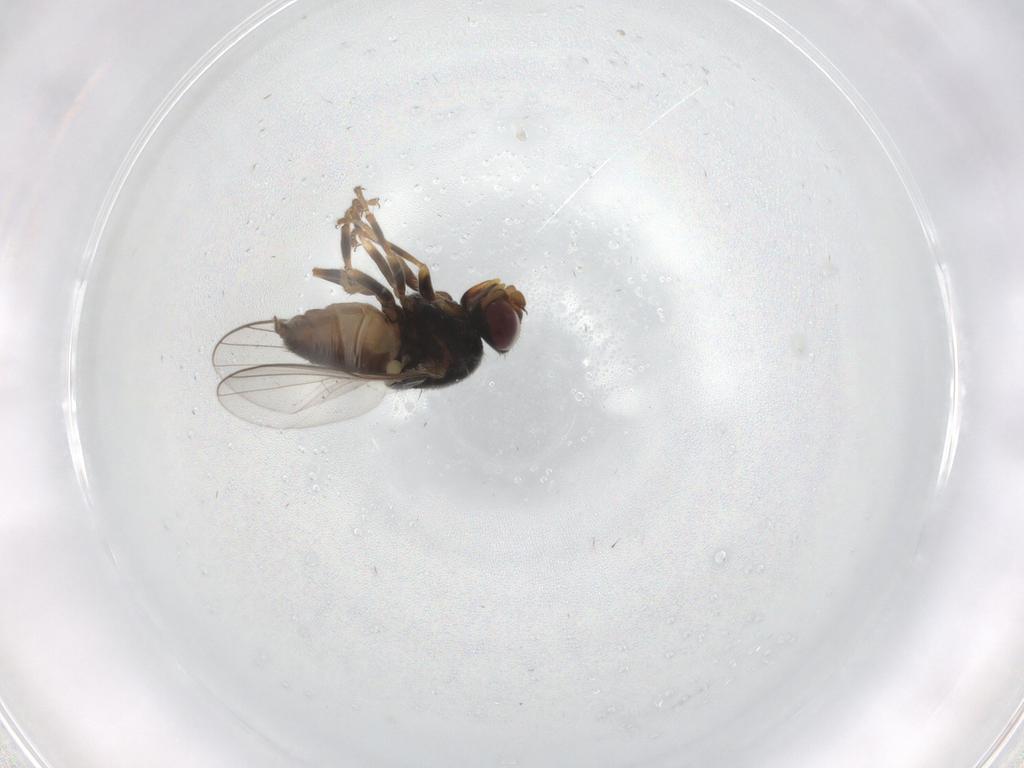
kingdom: Animalia
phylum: Arthropoda
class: Insecta
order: Diptera
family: Chloropidae
